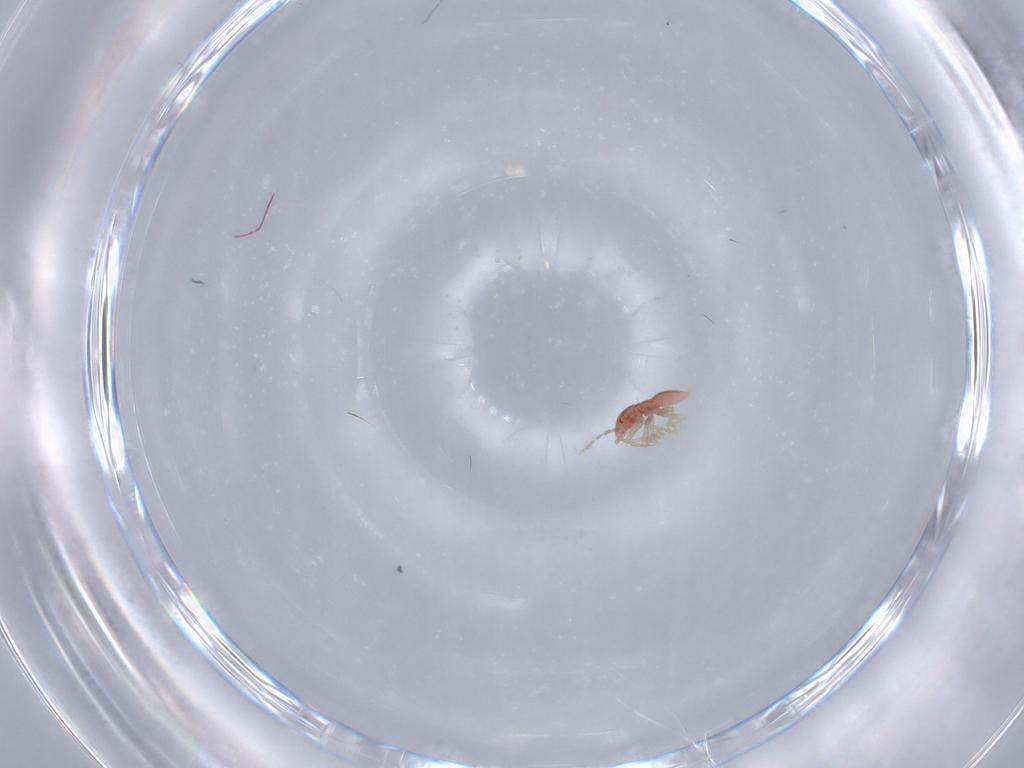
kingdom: Animalia
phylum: Arthropoda
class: Insecta
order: Hemiptera
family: Lasiochilidae
